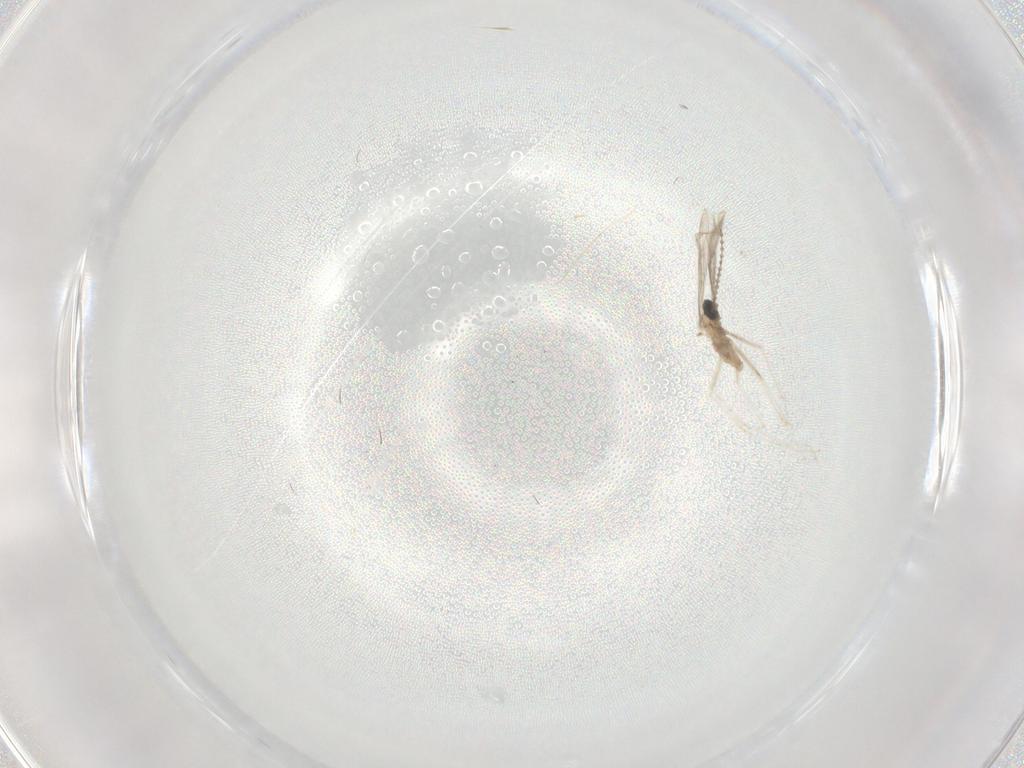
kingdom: Animalia
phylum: Arthropoda
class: Insecta
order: Diptera
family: Cecidomyiidae
